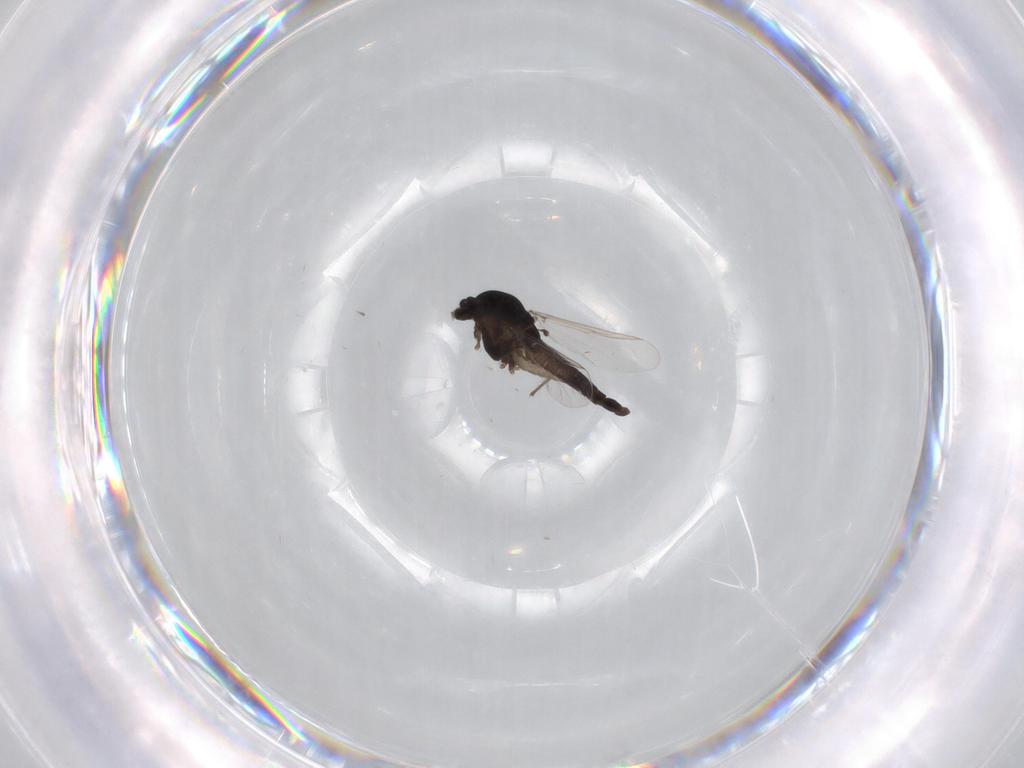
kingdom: Animalia
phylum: Arthropoda
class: Insecta
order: Diptera
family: Chironomidae
